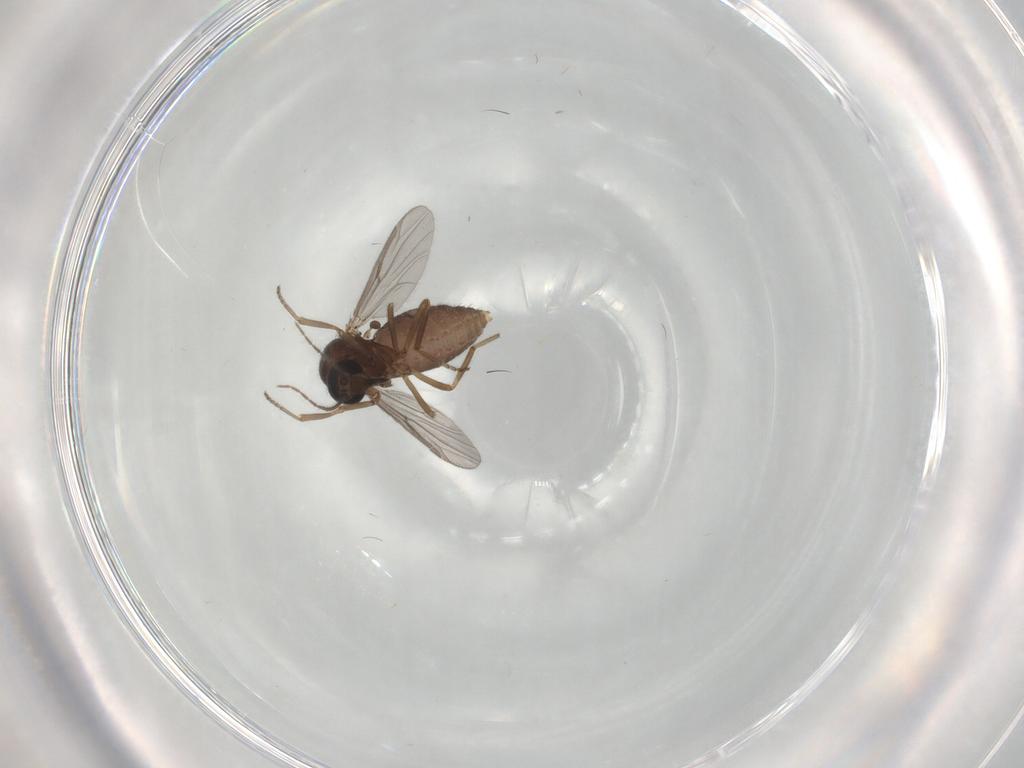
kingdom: Animalia
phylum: Arthropoda
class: Insecta
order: Diptera
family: Ceratopogonidae
